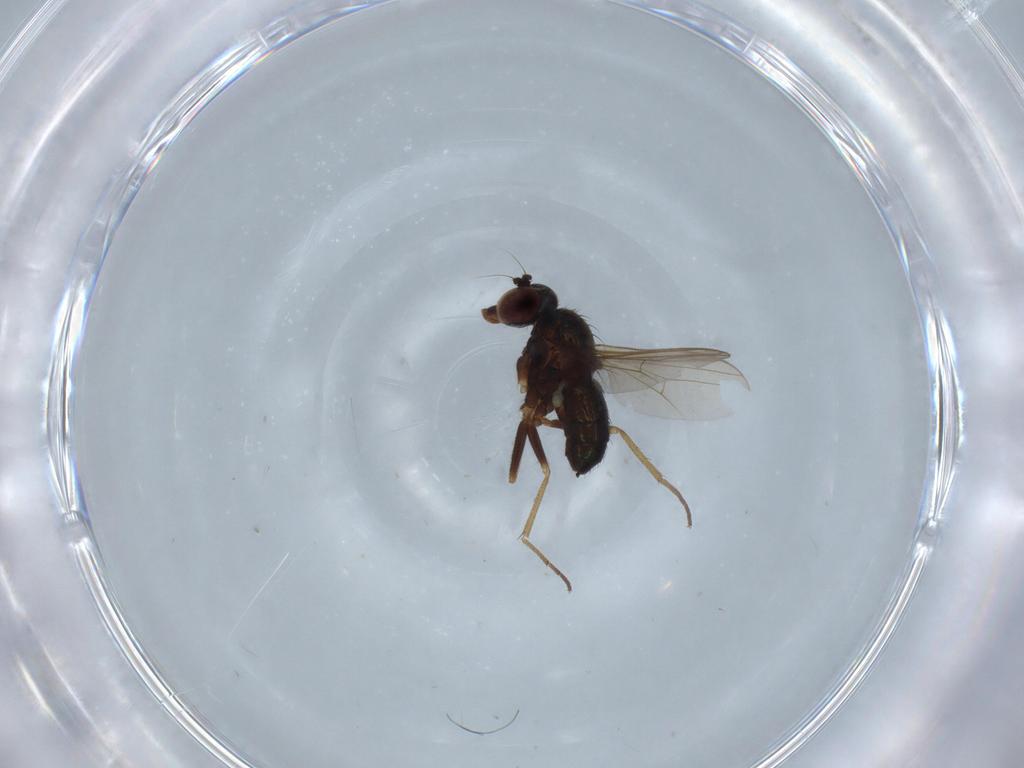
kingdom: Animalia
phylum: Arthropoda
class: Insecta
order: Diptera
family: Dolichopodidae
